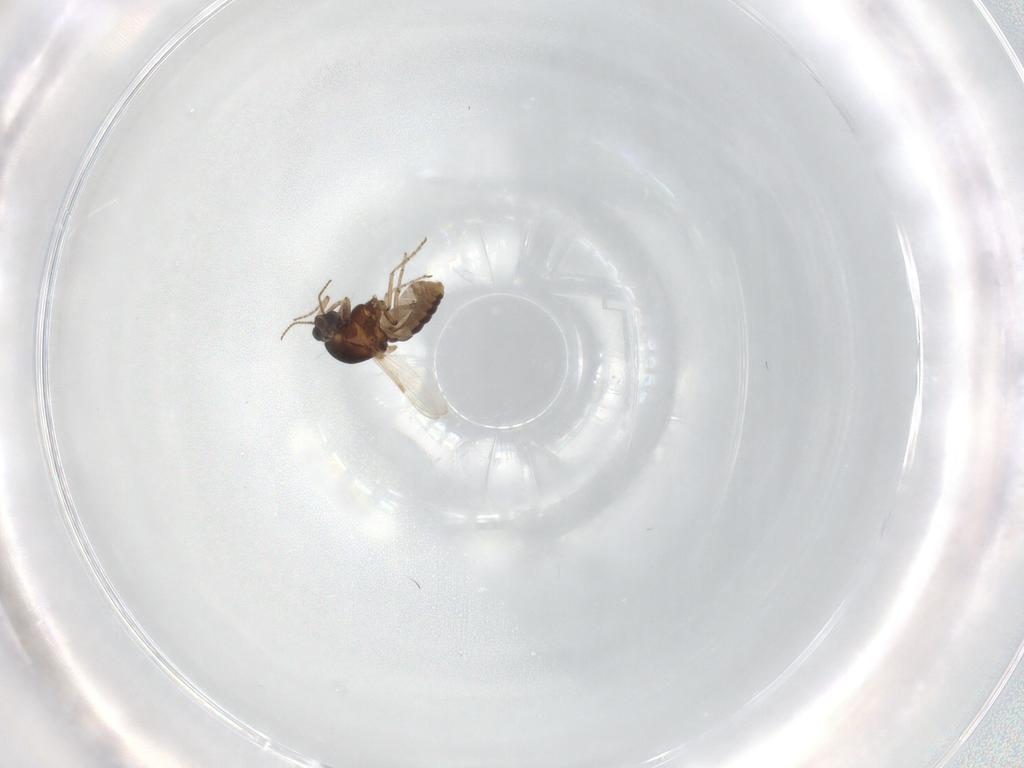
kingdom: Animalia
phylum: Arthropoda
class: Insecta
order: Diptera
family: Ceratopogonidae
